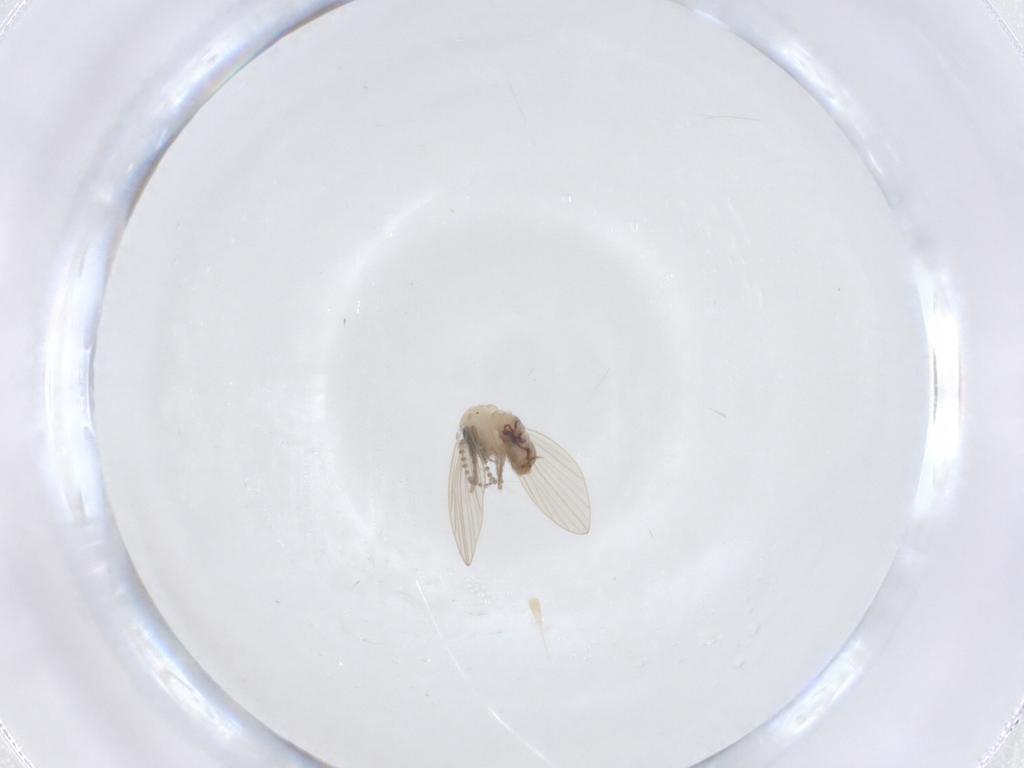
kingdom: Animalia
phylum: Arthropoda
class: Insecta
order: Diptera
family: Psychodidae
